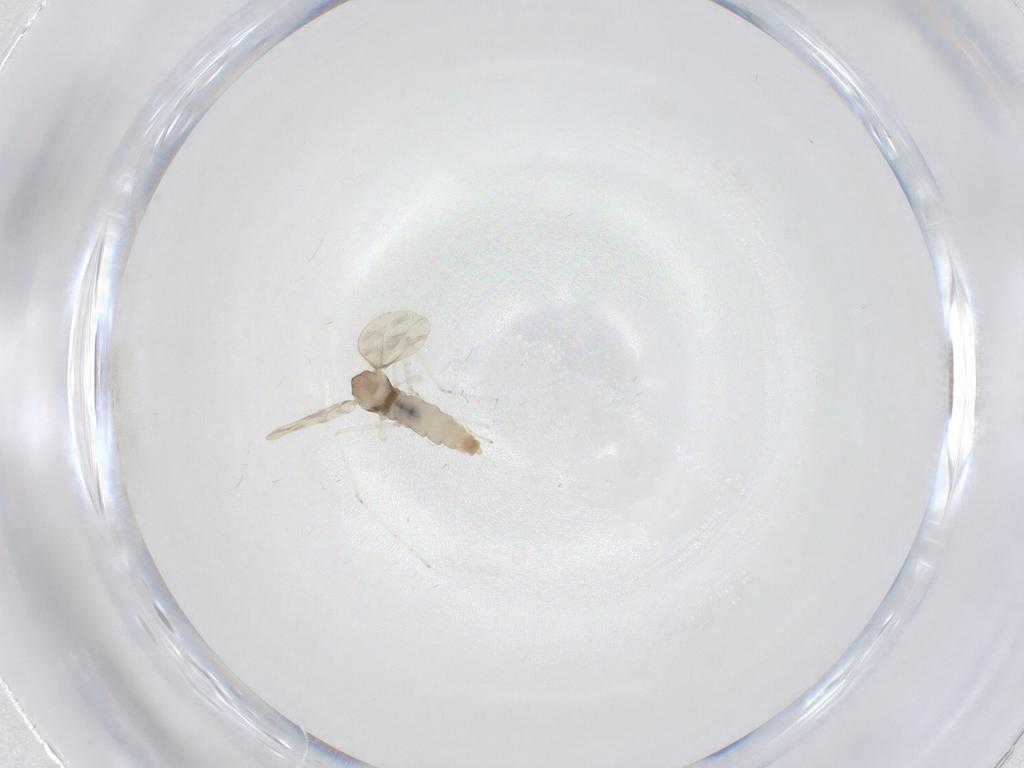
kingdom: Animalia
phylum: Arthropoda
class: Insecta
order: Diptera
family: Cecidomyiidae
